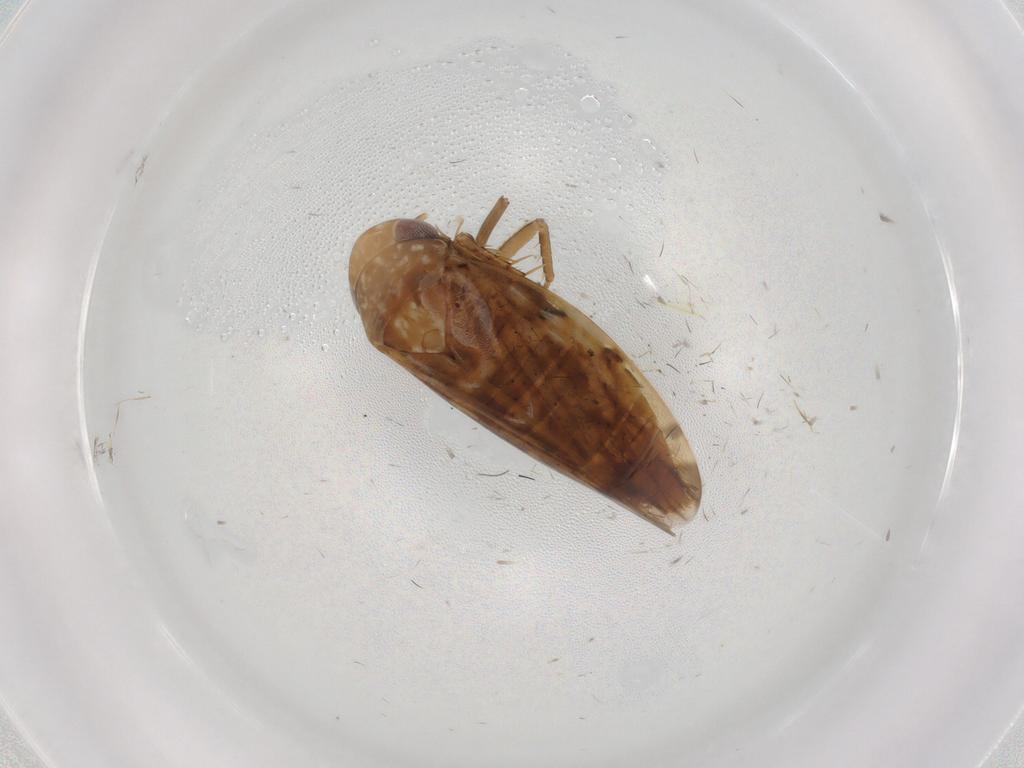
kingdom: Animalia
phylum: Arthropoda
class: Insecta
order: Hemiptera
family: Cicadellidae
